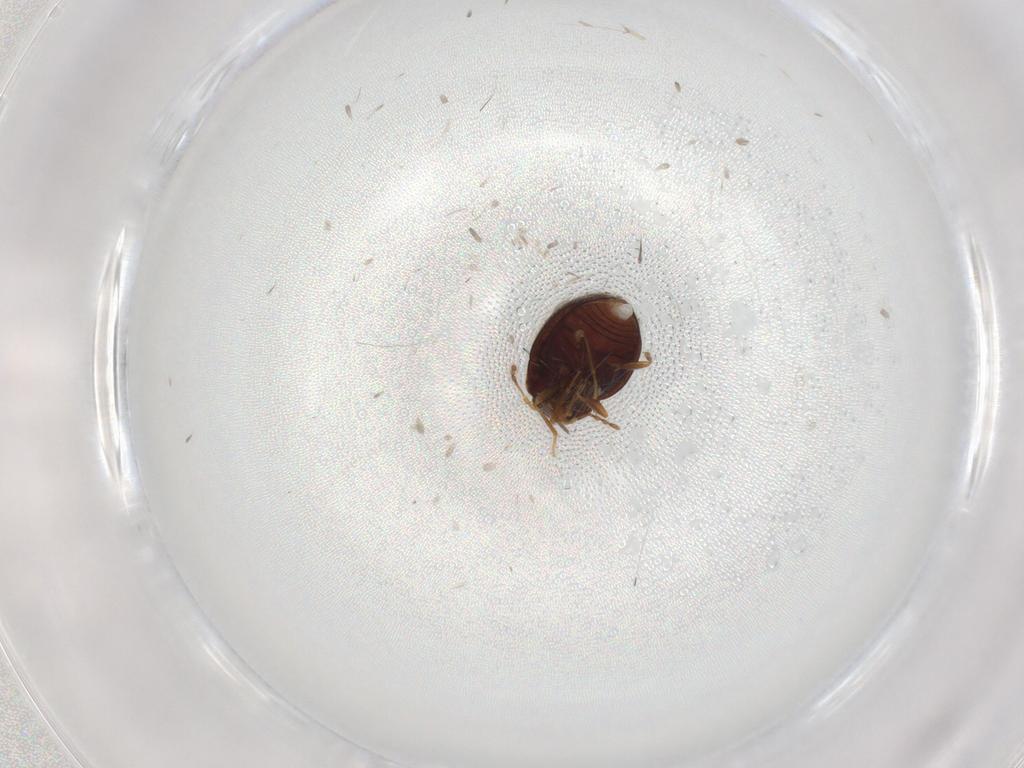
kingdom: Animalia
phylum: Arthropoda
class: Insecta
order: Coleoptera
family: Anamorphidae
